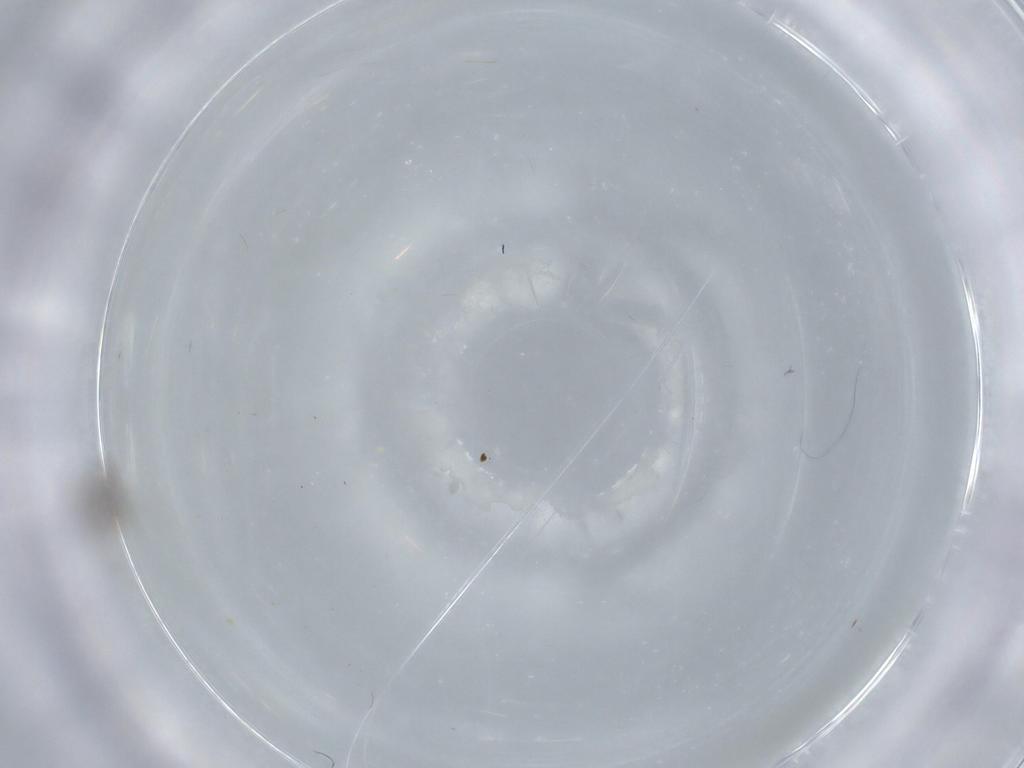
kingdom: Animalia
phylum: Arthropoda
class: Insecta
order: Diptera
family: Cecidomyiidae
